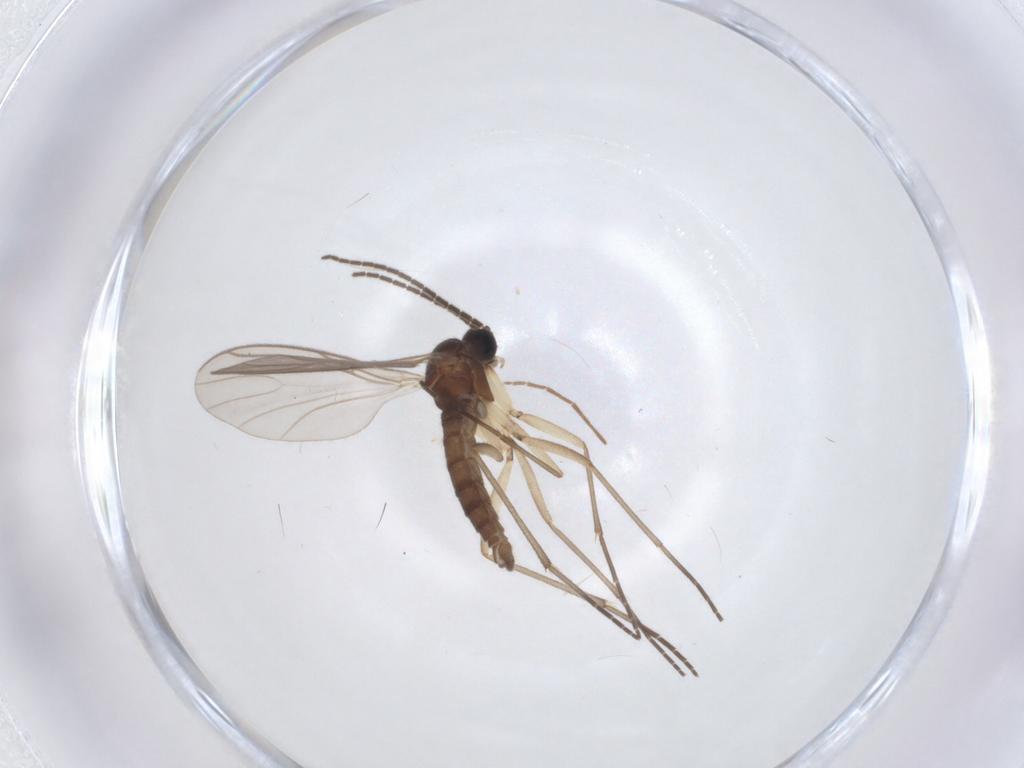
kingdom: Animalia
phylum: Arthropoda
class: Insecta
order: Diptera
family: Sciaridae
